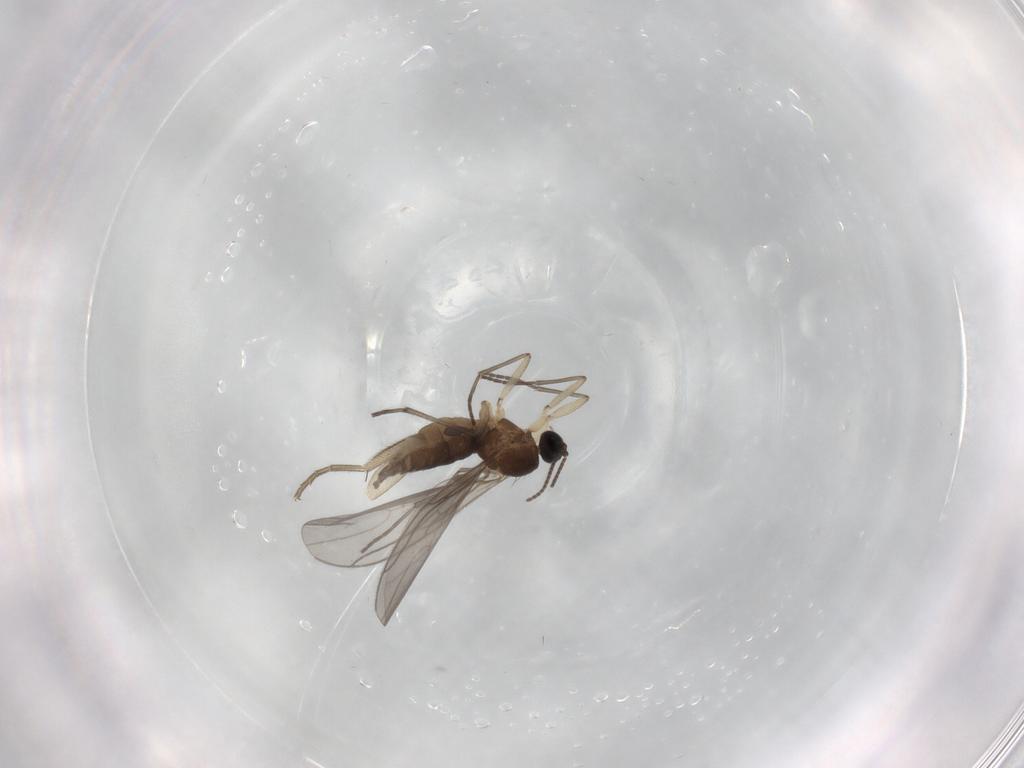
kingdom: Animalia
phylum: Arthropoda
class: Insecta
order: Diptera
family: Sciaridae
